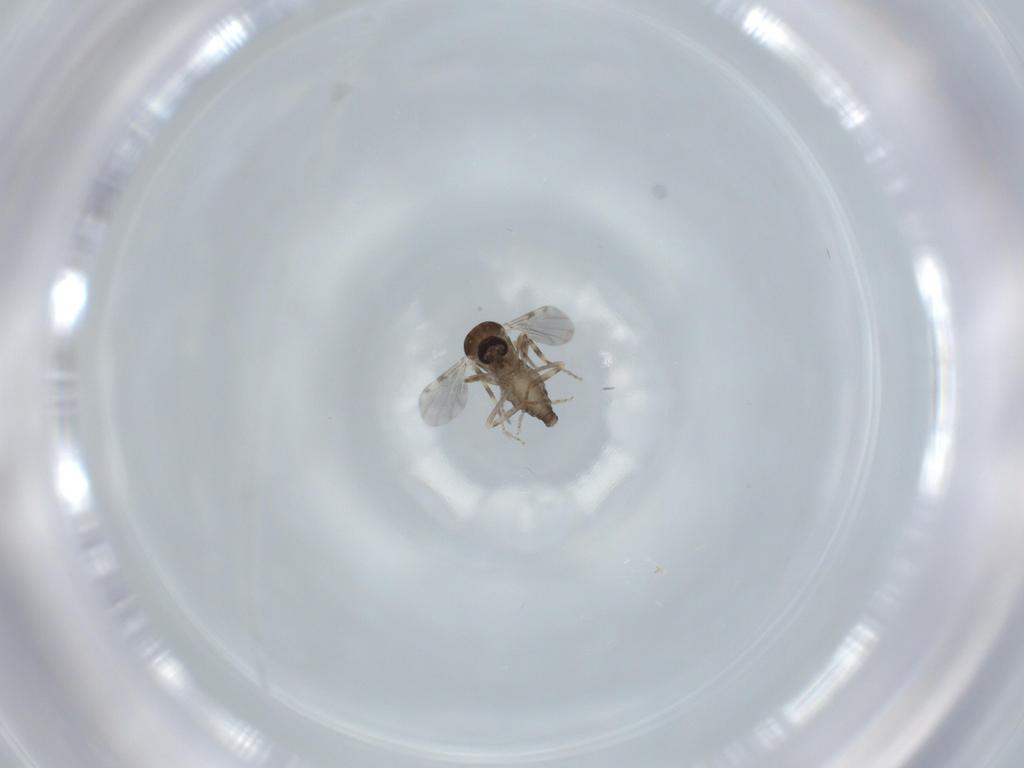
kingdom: Animalia
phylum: Arthropoda
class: Insecta
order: Diptera
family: Ceratopogonidae
